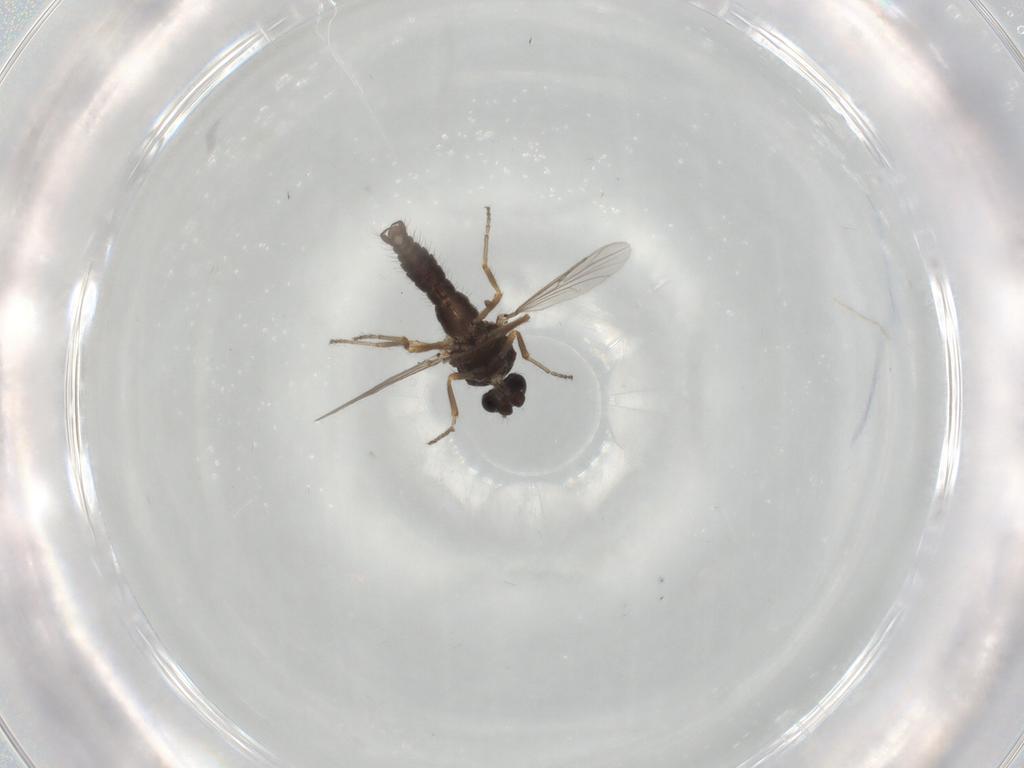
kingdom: Animalia
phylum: Arthropoda
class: Insecta
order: Diptera
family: Ceratopogonidae
